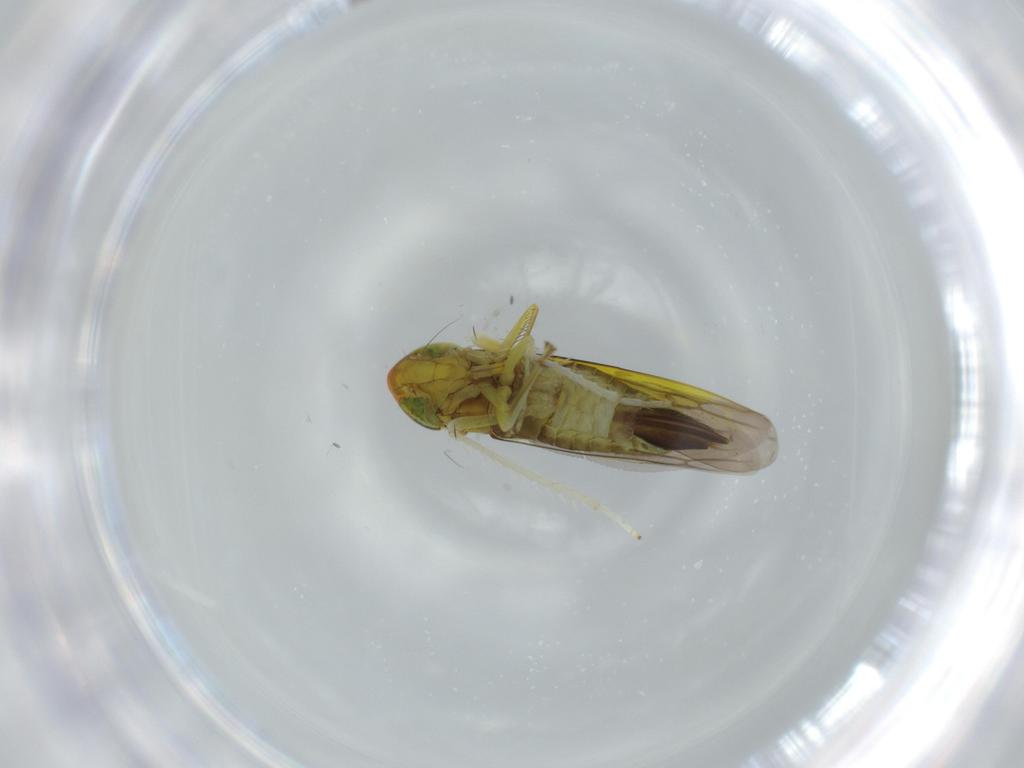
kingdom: Animalia
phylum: Arthropoda
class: Insecta
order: Hemiptera
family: Cicadellidae
